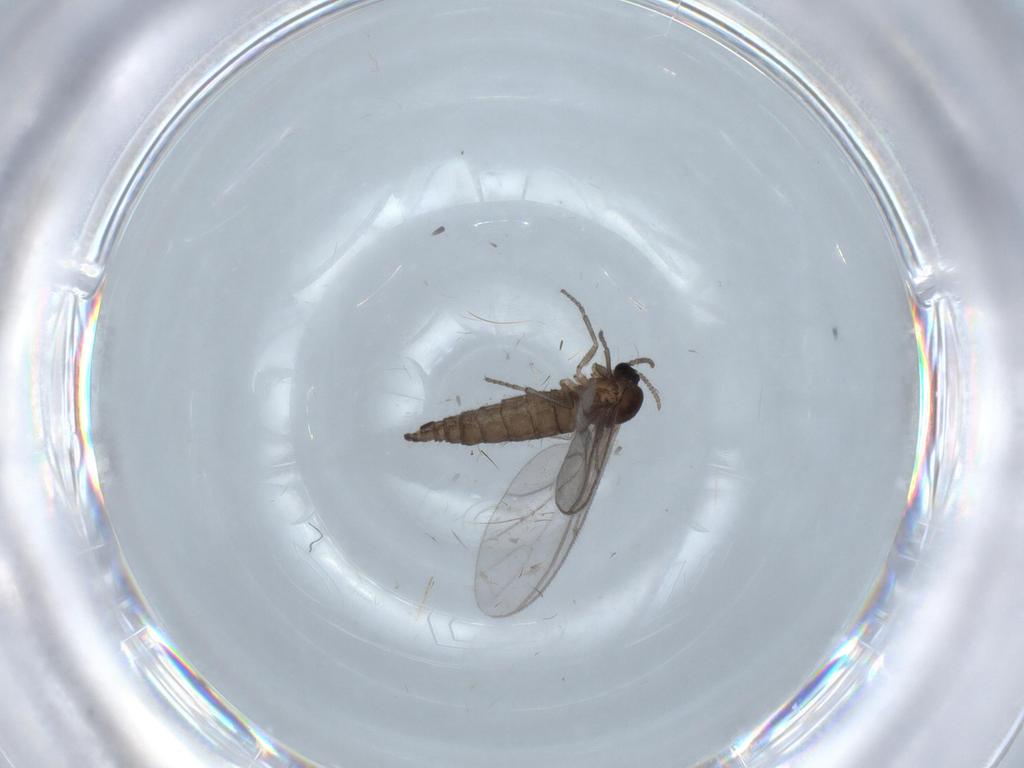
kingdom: Animalia
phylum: Arthropoda
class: Insecta
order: Diptera
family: Sciaridae
